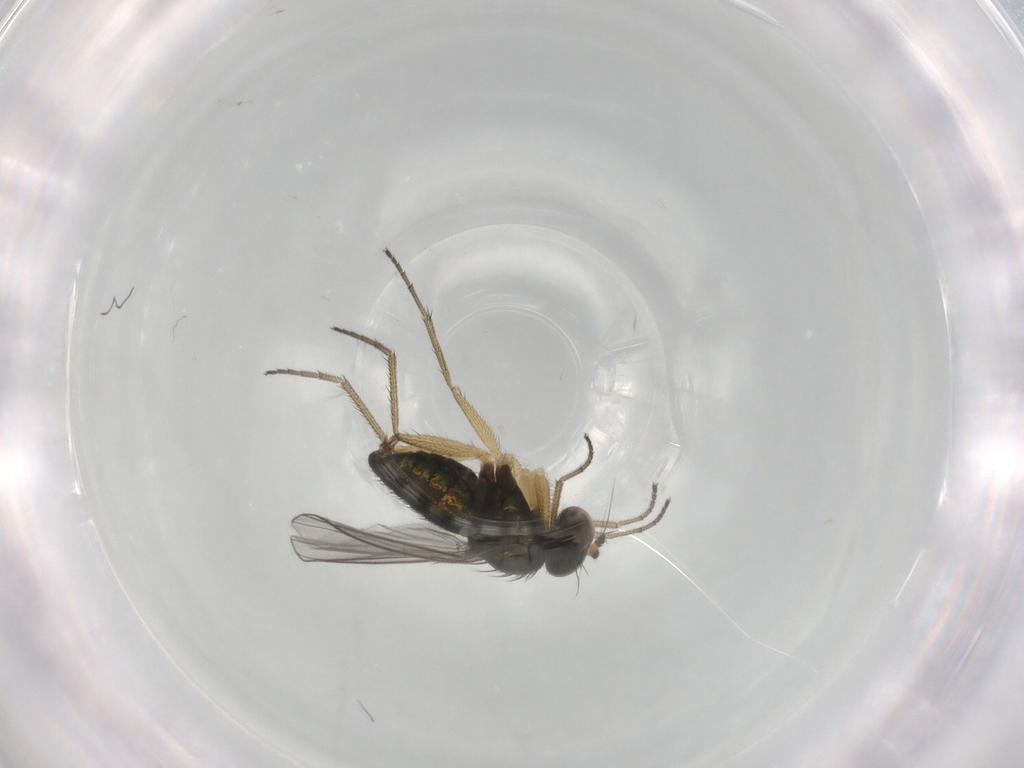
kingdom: Animalia
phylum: Arthropoda
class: Insecta
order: Diptera
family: Dolichopodidae
